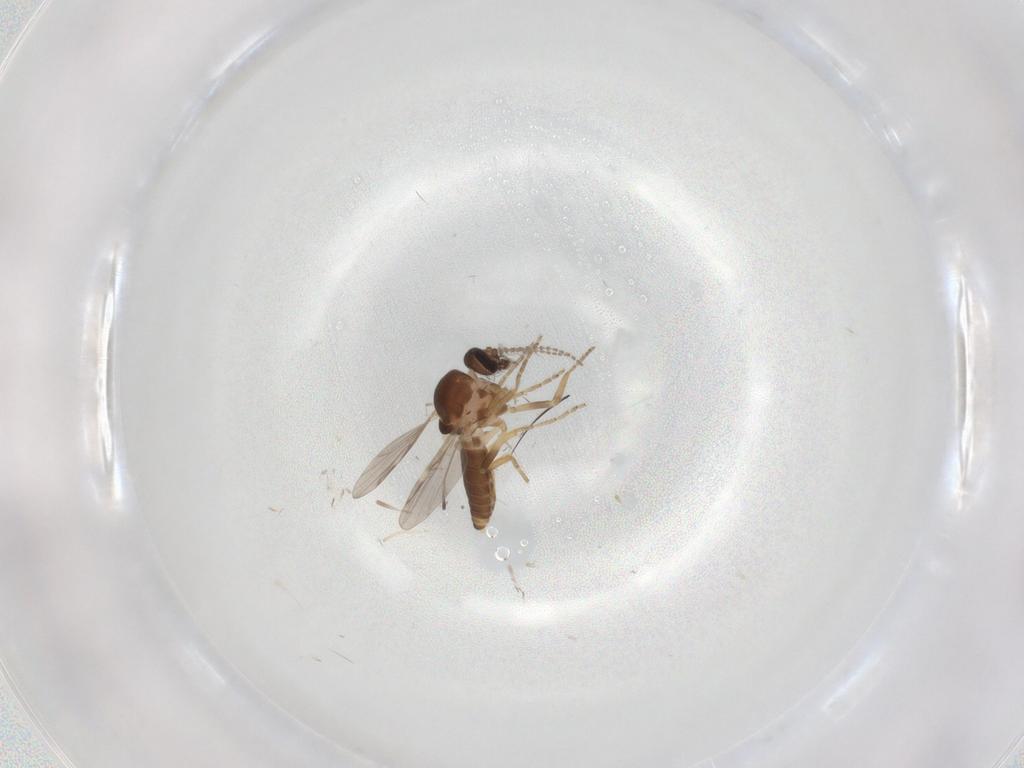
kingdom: Animalia
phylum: Arthropoda
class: Insecta
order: Diptera
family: Ceratopogonidae
